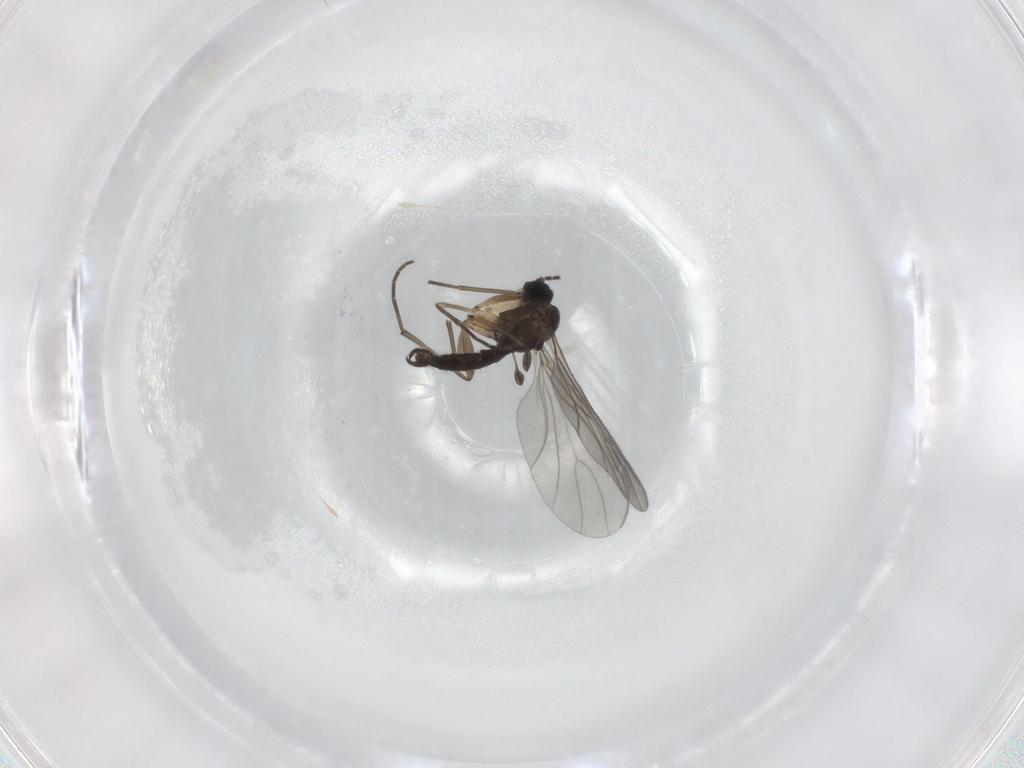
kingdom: Animalia
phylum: Arthropoda
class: Insecta
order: Diptera
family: Sciaridae
